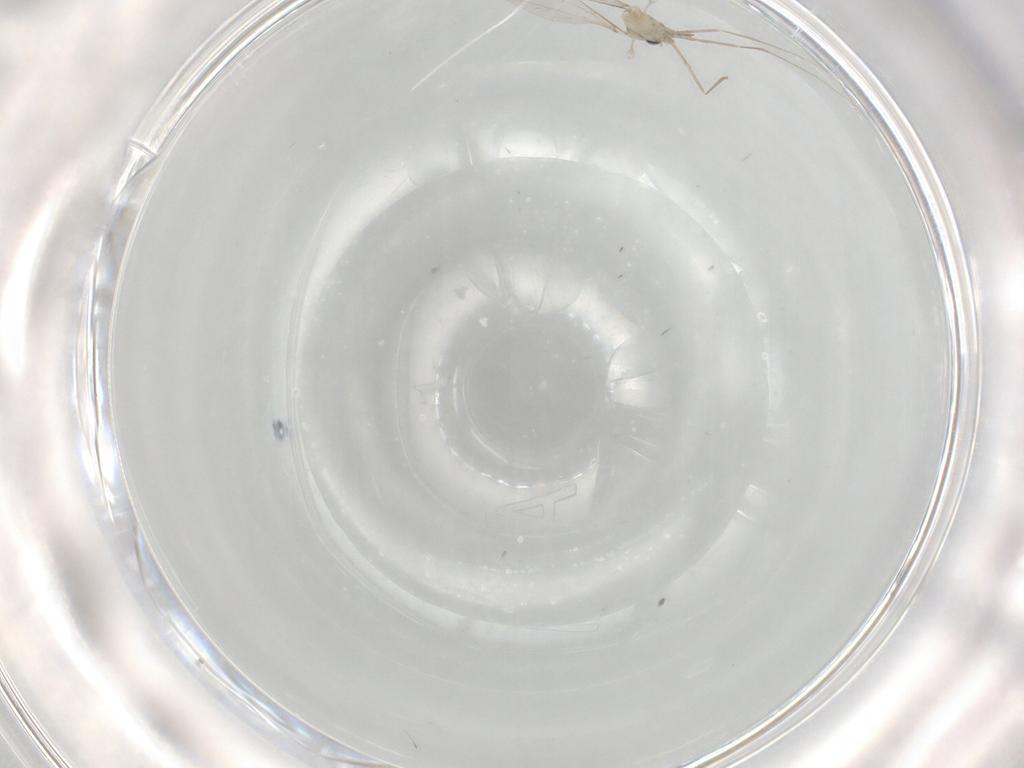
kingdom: Animalia
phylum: Arthropoda
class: Insecta
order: Diptera
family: Cecidomyiidae
